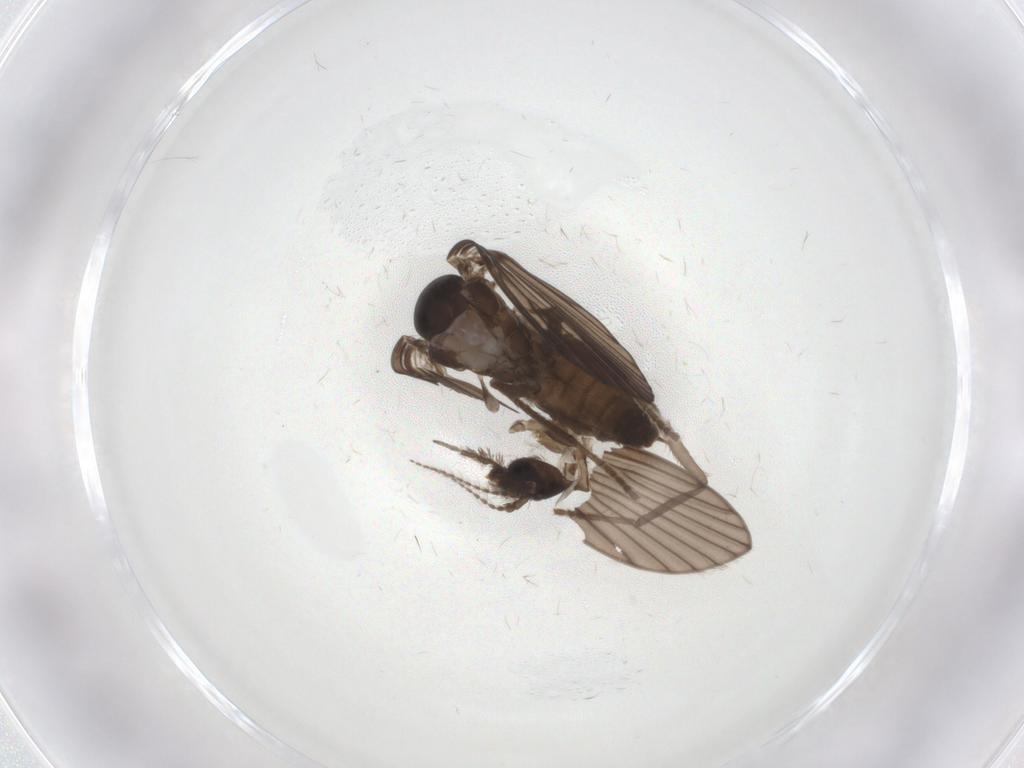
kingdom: Animalia
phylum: Arthropoda
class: Insecta
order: Diptera
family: Psychodidae
